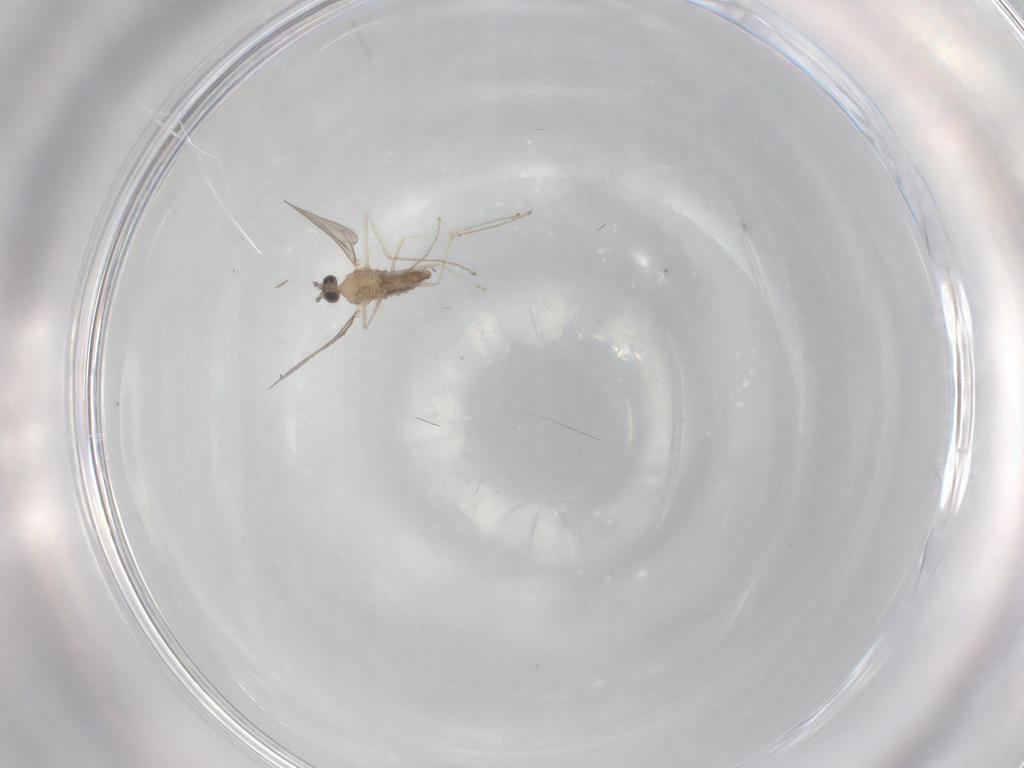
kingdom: Animalia
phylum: Arthropoda
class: Insecta
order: Diptera
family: Cecidomyiidae
